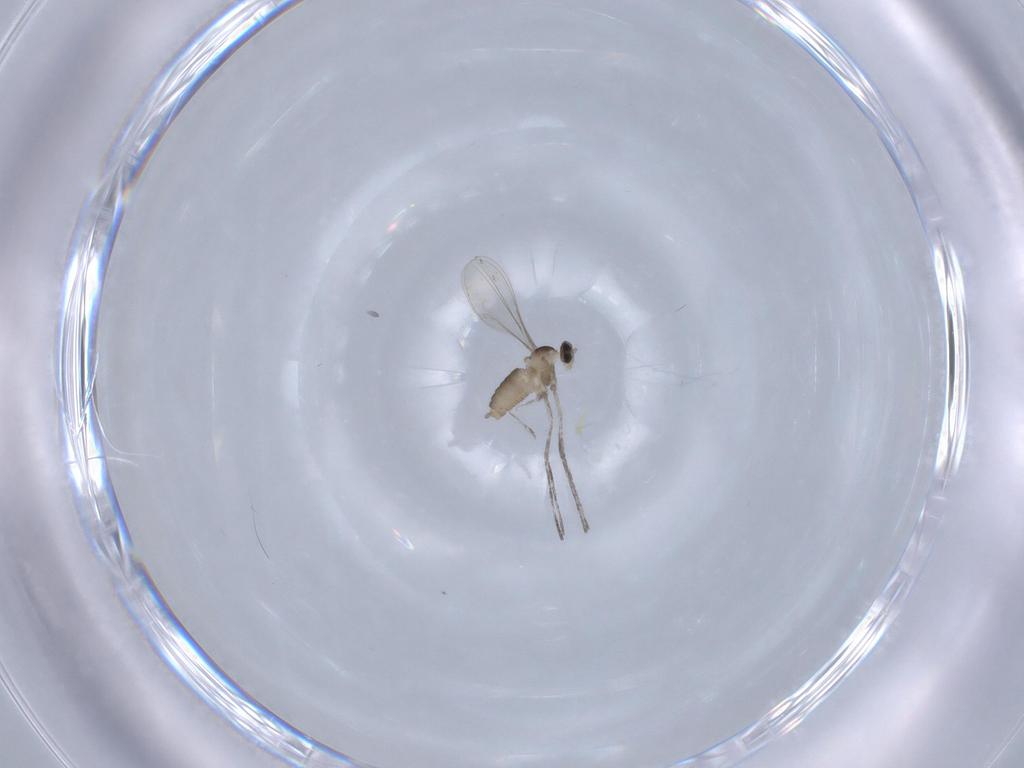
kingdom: Animalia
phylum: Arthropoda
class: Insecta
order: Diptera
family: Cecidomyiidae
